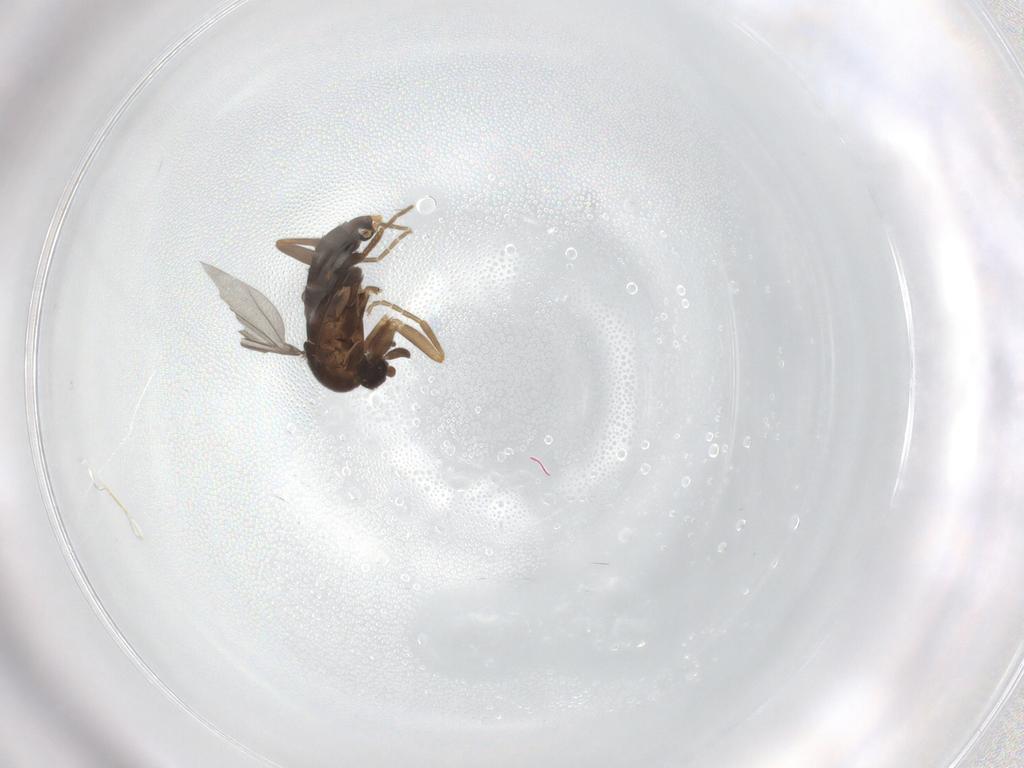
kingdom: Animalia
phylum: Arthropoda
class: Insecta
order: Diptera
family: Phoridae
